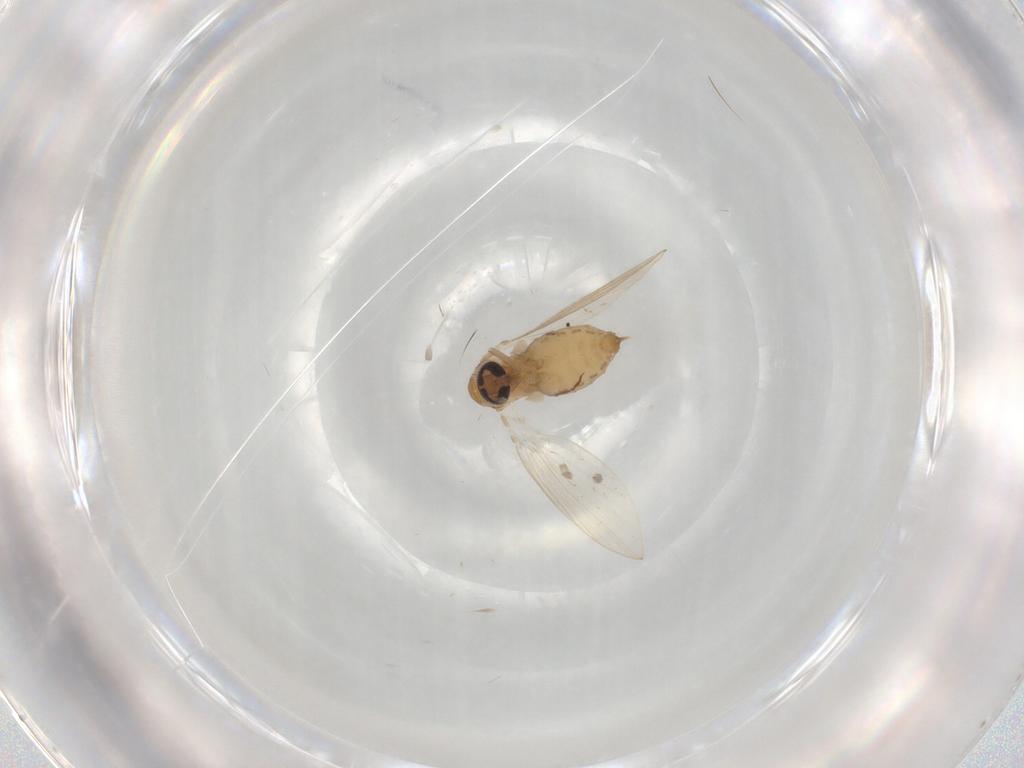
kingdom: Animalia
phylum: Arthropoda
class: Insecta
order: Diptera
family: Psychodidae
